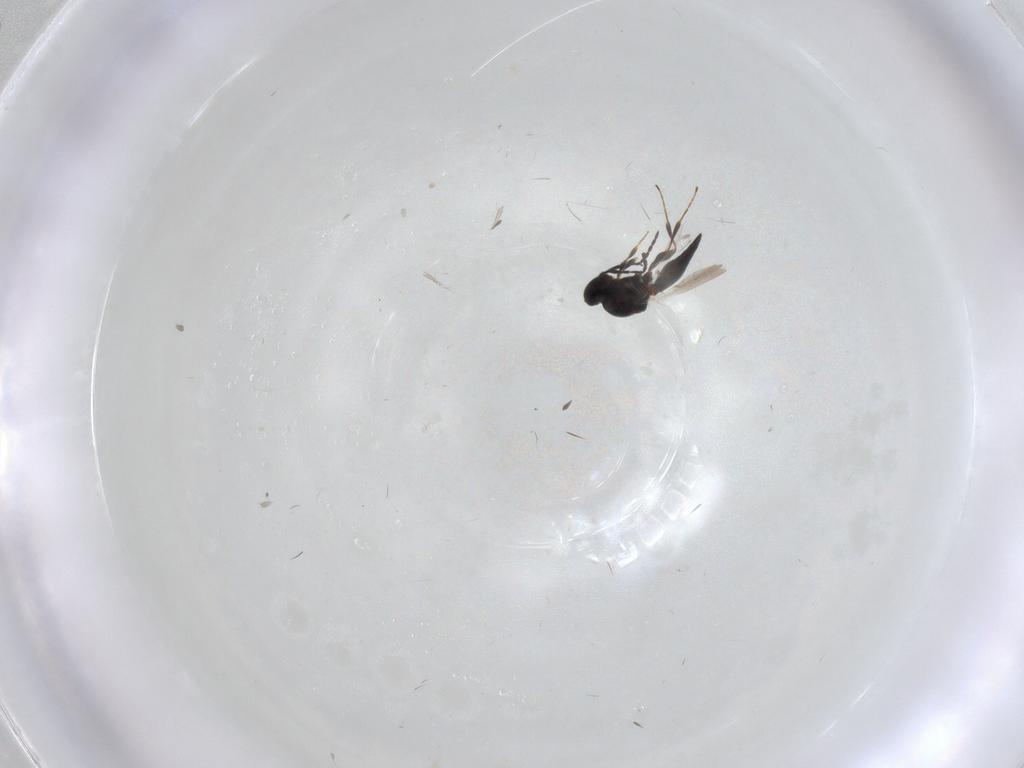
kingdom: Animalia
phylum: Arthropoda
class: Insecta
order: Hymenoptera
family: Platygastridae
